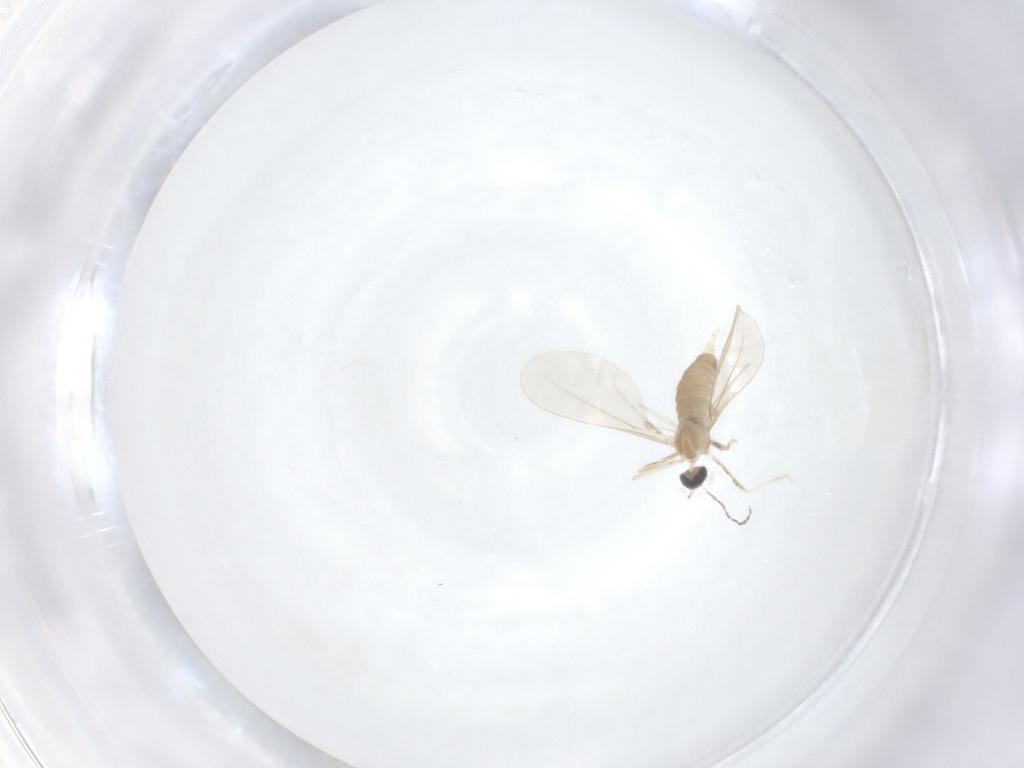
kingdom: Animalia
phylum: Arthropoda
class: Insecta
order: Diptera
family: Cecidomyiidae
